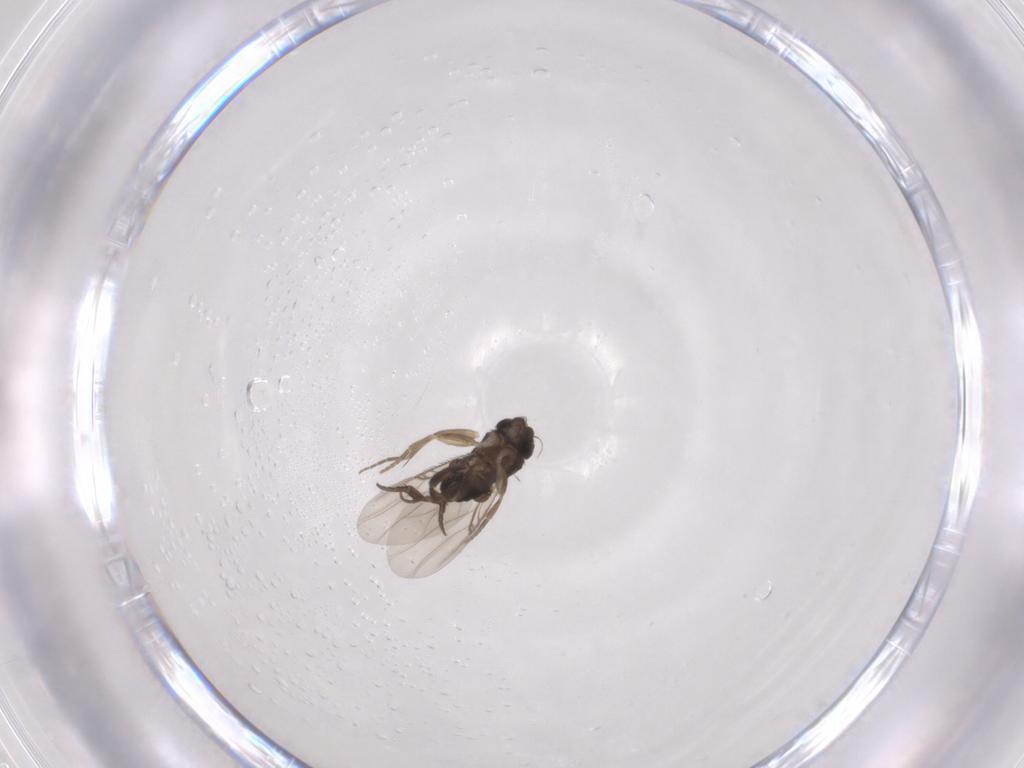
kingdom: Animalia
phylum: Arthropoda
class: Insecta
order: Diptera
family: Phoridae
